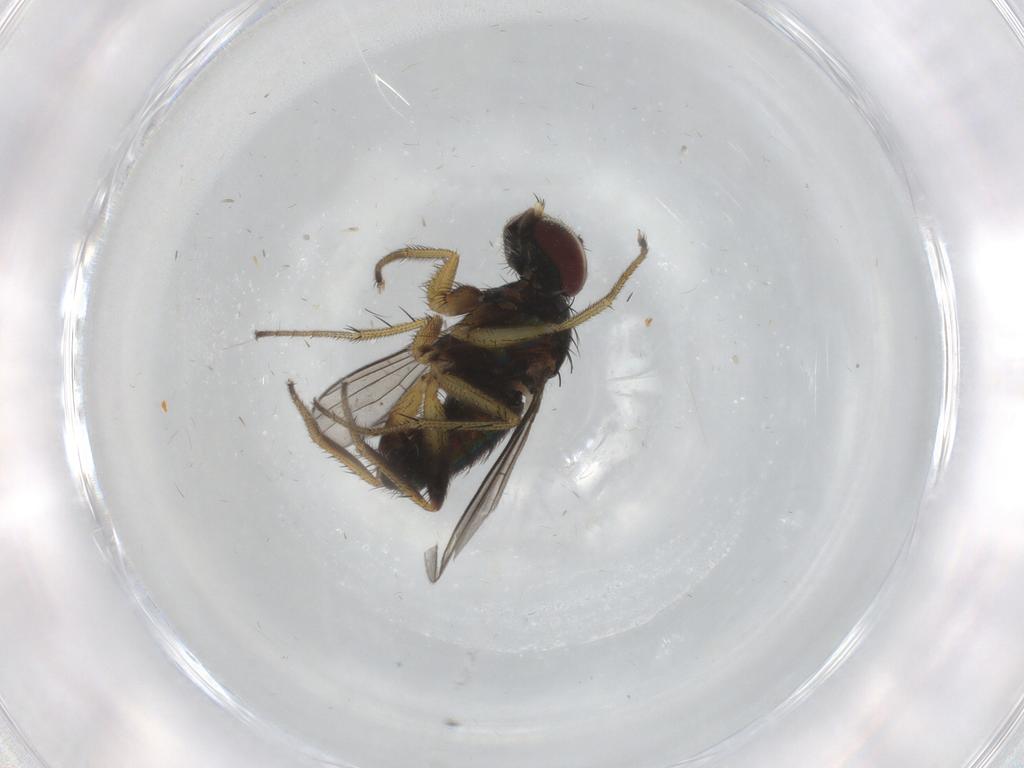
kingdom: Animalia
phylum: Arthropoda
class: Insecta
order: Diptera
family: Dolichopodidae
